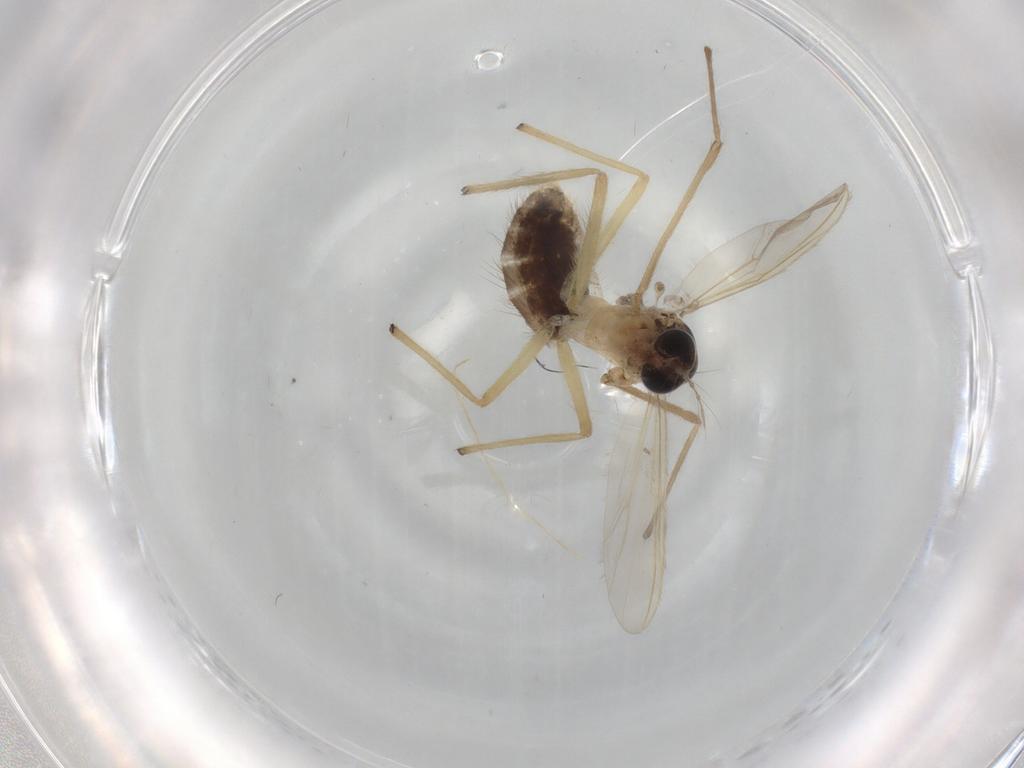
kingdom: Animalia
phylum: Arthropoda
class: Insecta
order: Diptera
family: Chironomidae
